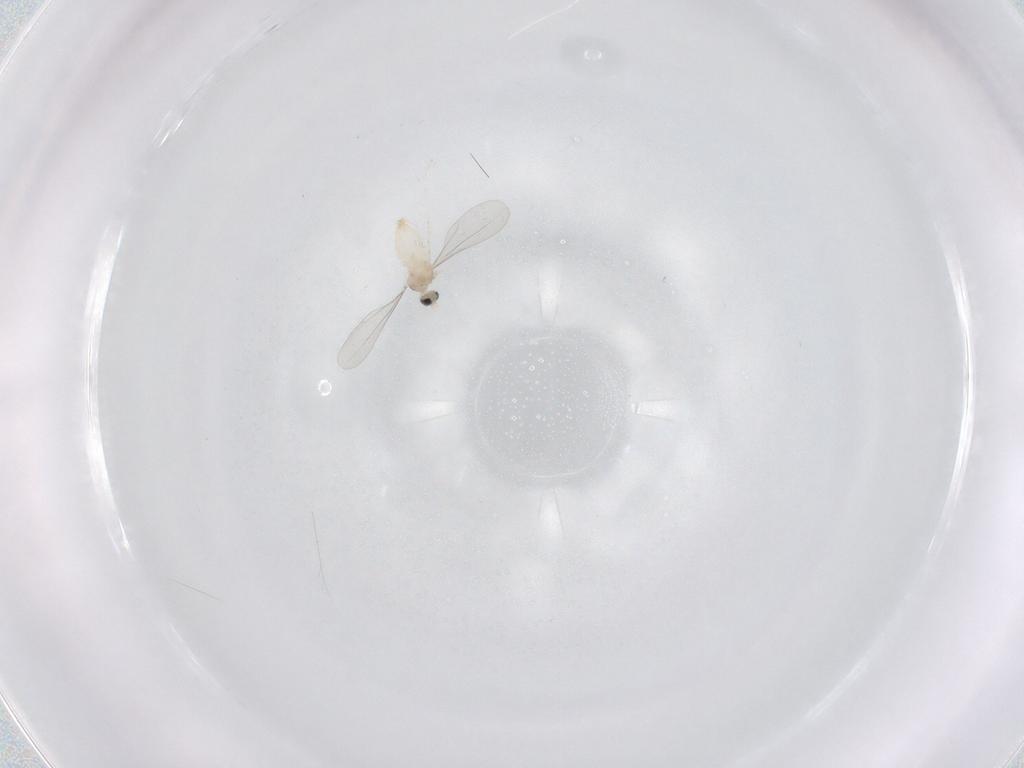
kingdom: Animalia
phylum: Arthropoda
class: Insecta
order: Diptera
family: Cecidomyiidae
